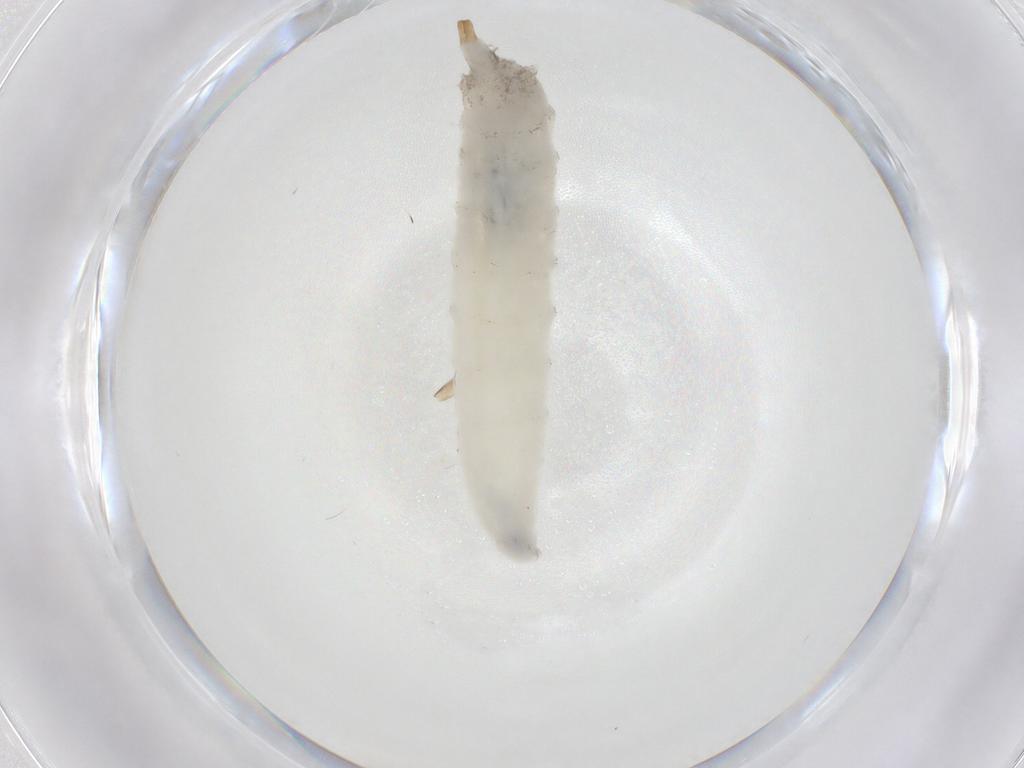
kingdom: Animalia
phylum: Arthropoda
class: Insecta
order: Diptera
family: Drosophilidae
